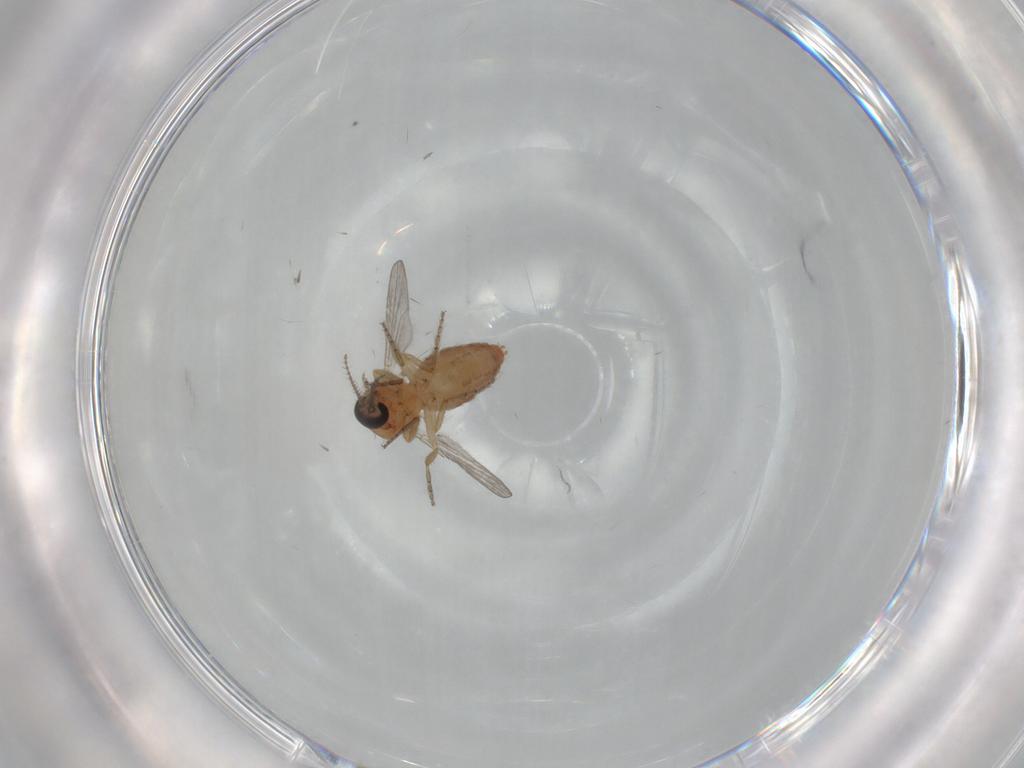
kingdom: Animalia
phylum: Arthropoda
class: Insecta
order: Diptera
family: Ceratopogonidae
